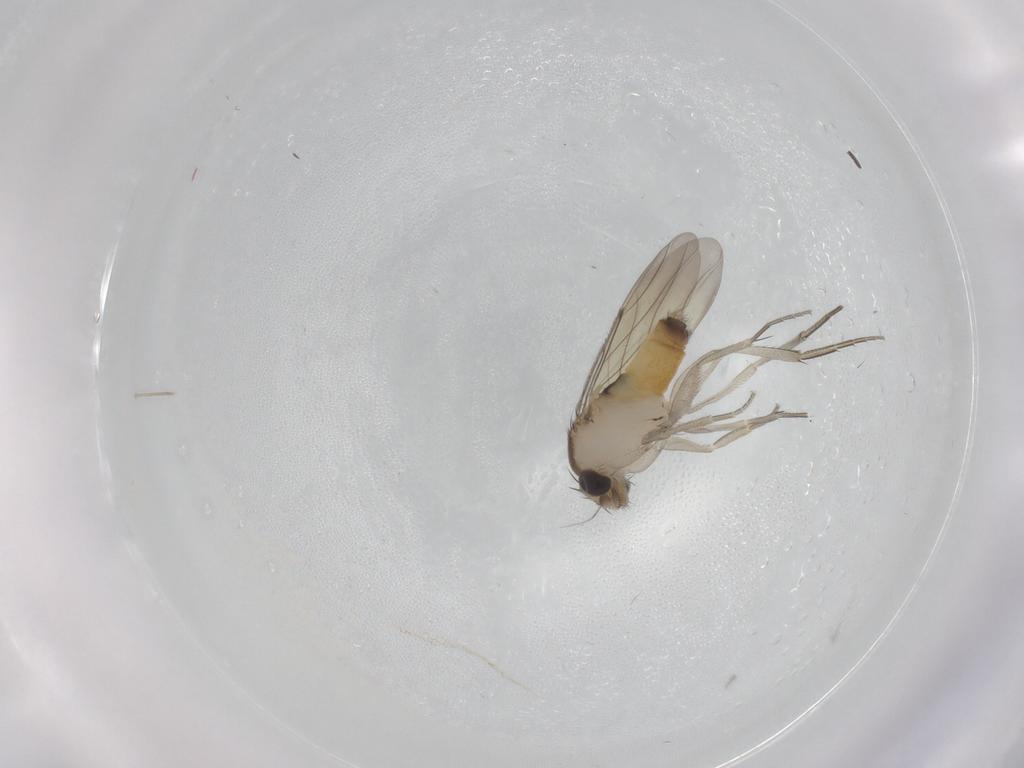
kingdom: Animalia
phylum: Arthropoda
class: Insecta
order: Diptera
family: Sciaridae
